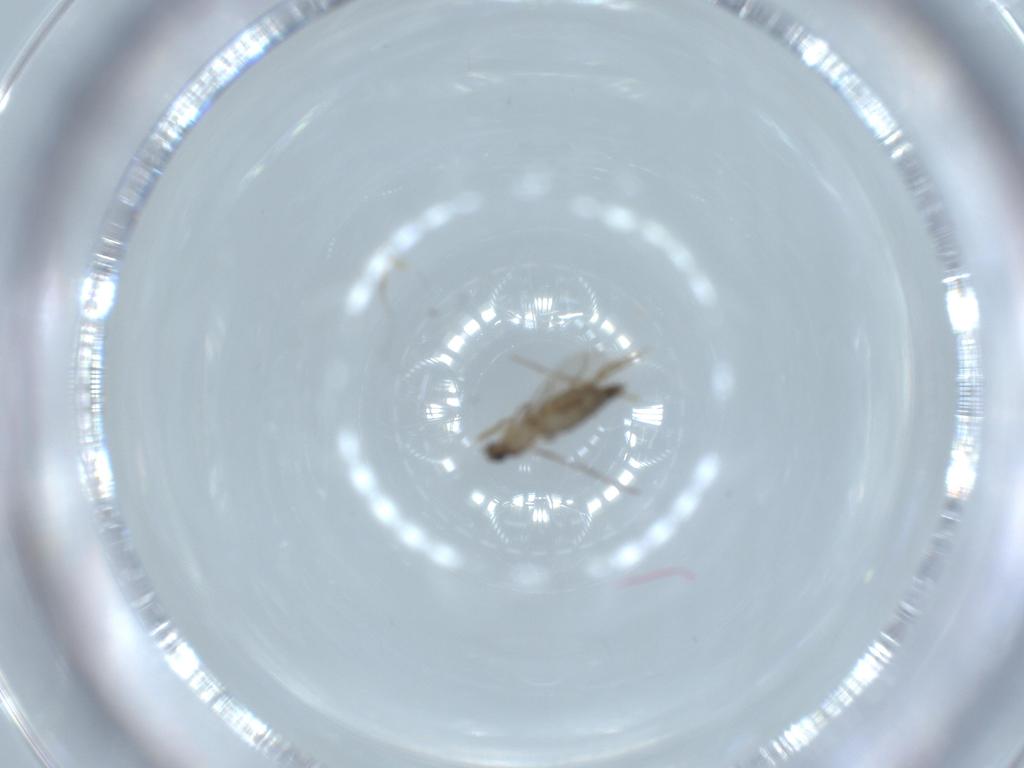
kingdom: Animalia
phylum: Arthropoda
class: Insecta
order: Diptera
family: Phoridae
